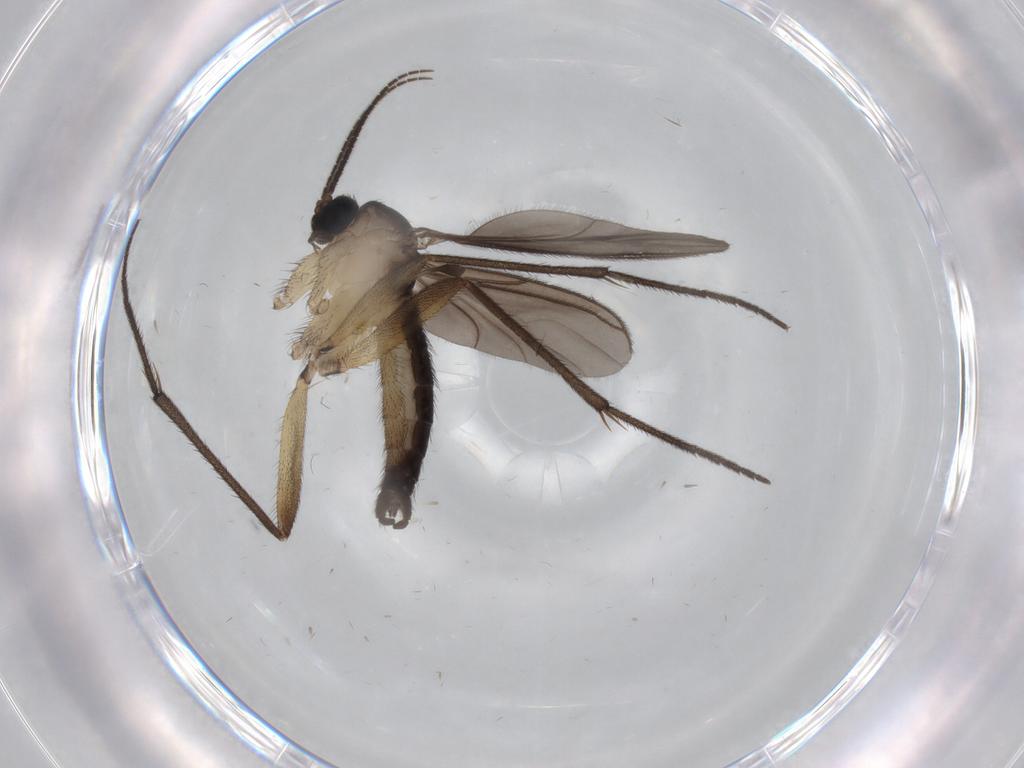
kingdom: Animalia
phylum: Arthropoda
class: Insecta
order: Diptera
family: Sciaridae
